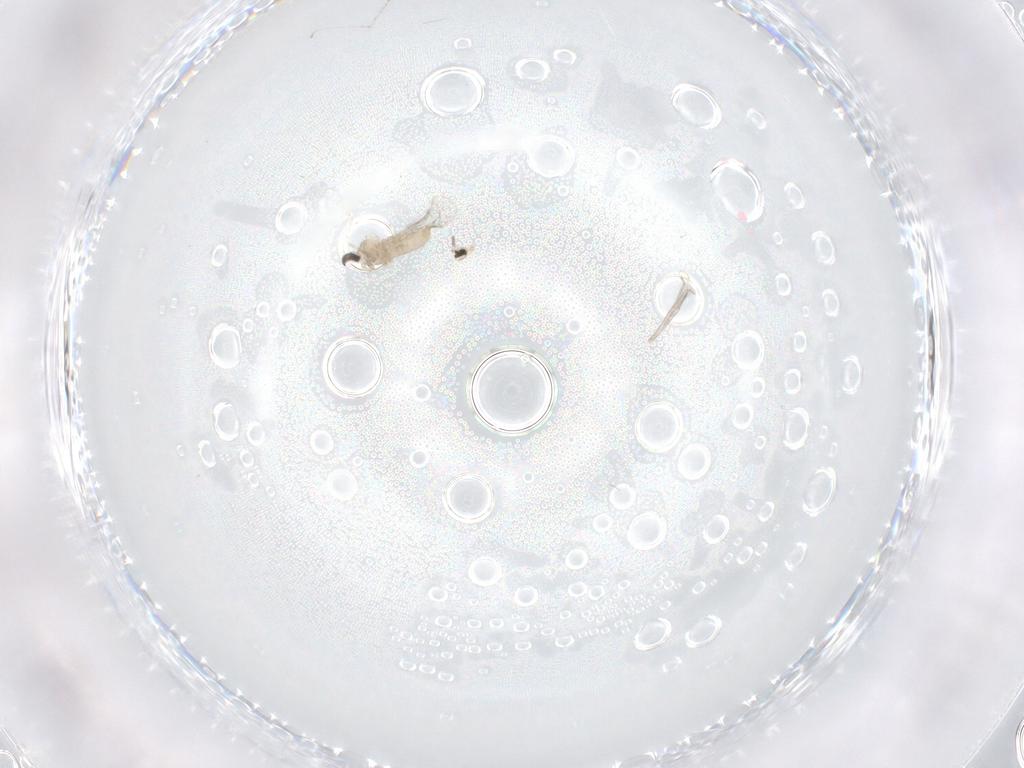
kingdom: Animalia
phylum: Arthropoda
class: Insecta
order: Diptera
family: Cecidomyiidae
